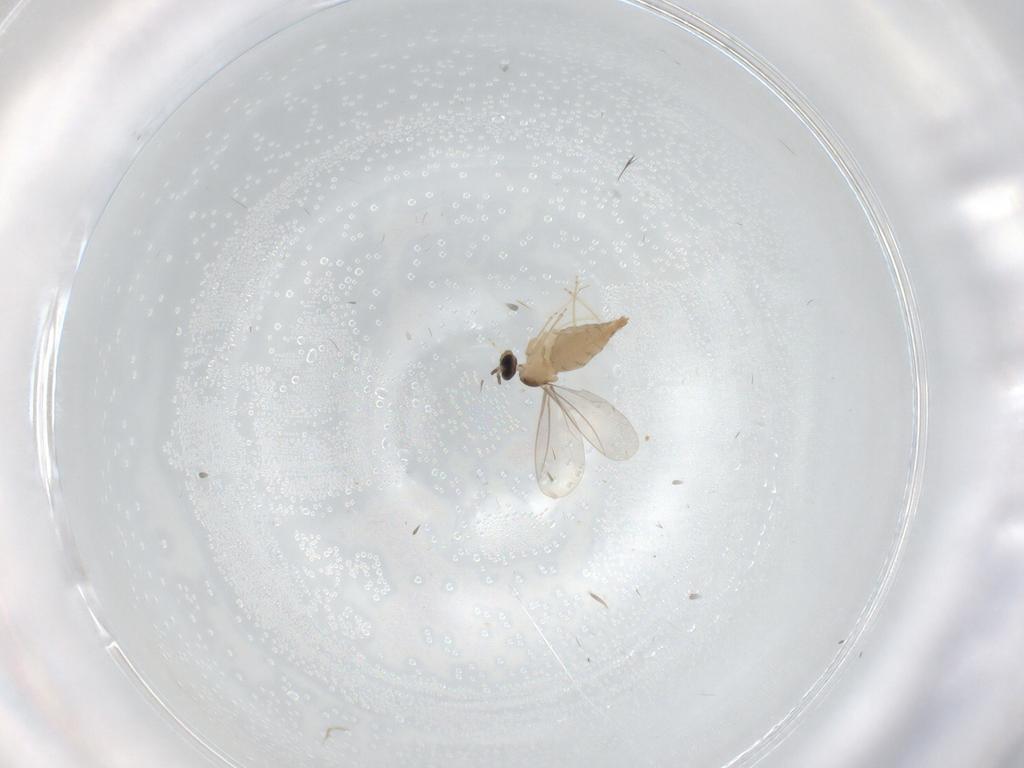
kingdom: Animalia
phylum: Arthropoda
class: Insecta
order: Diptera
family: Cecidomyiidae
